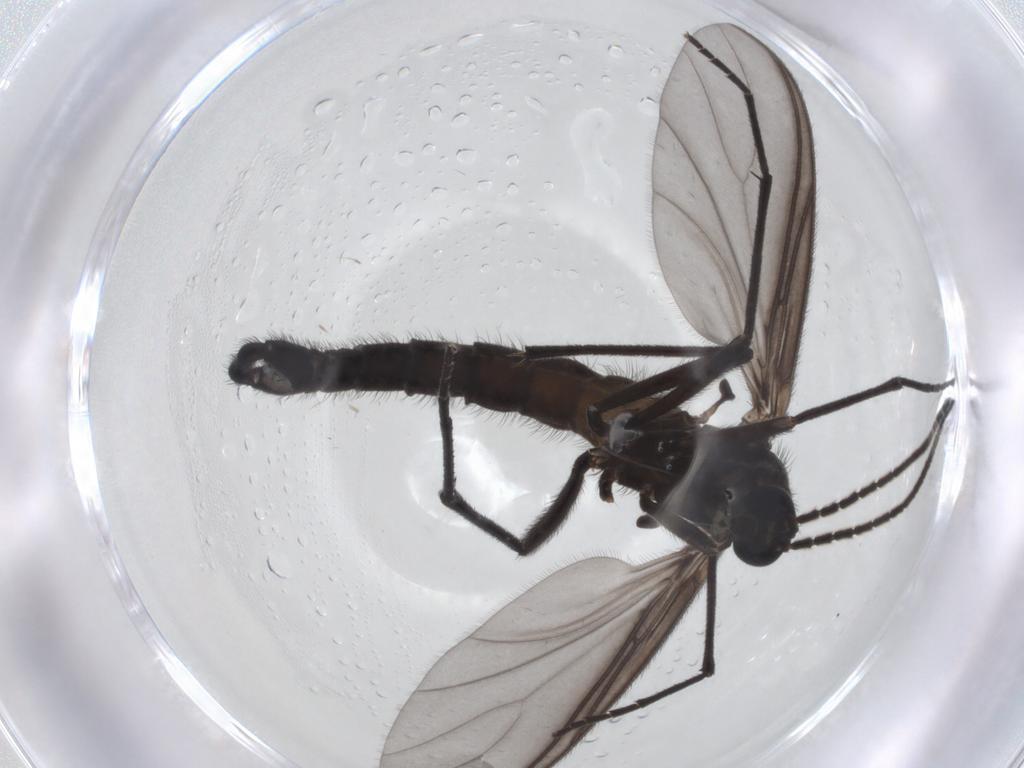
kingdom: Animalia
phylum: Arthropoda
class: Insecta
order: Diptera
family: Cecidomyiidae
